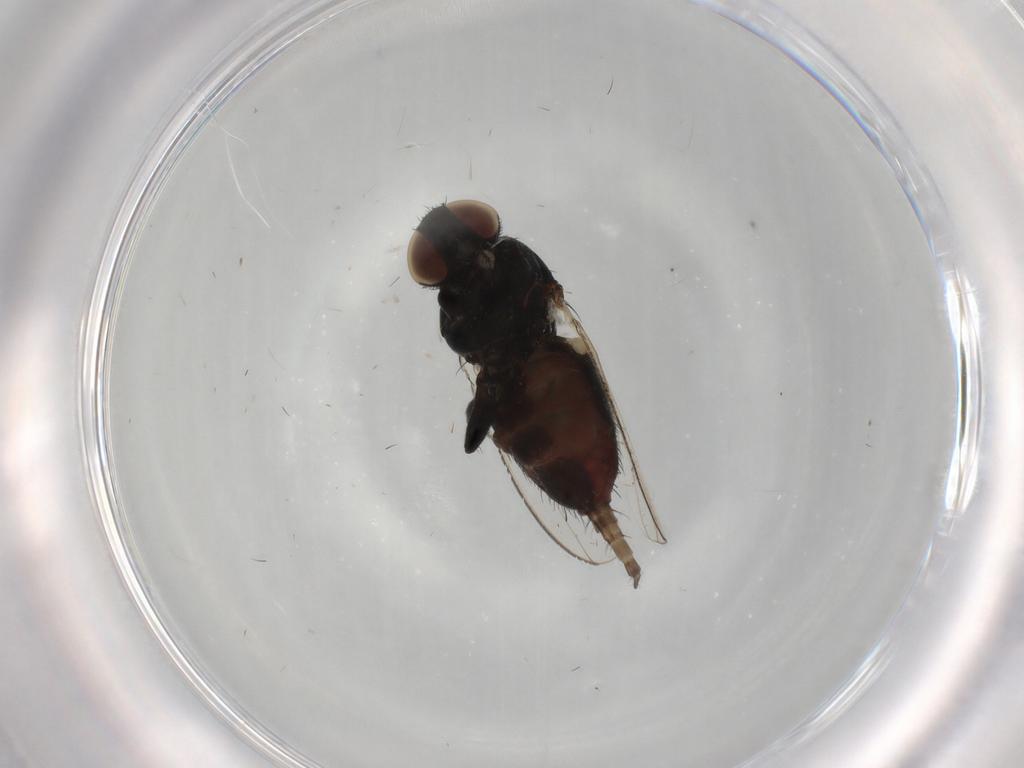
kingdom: Animalia
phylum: Arthropoda
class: Insecta
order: Diptera
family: Milichiidae
